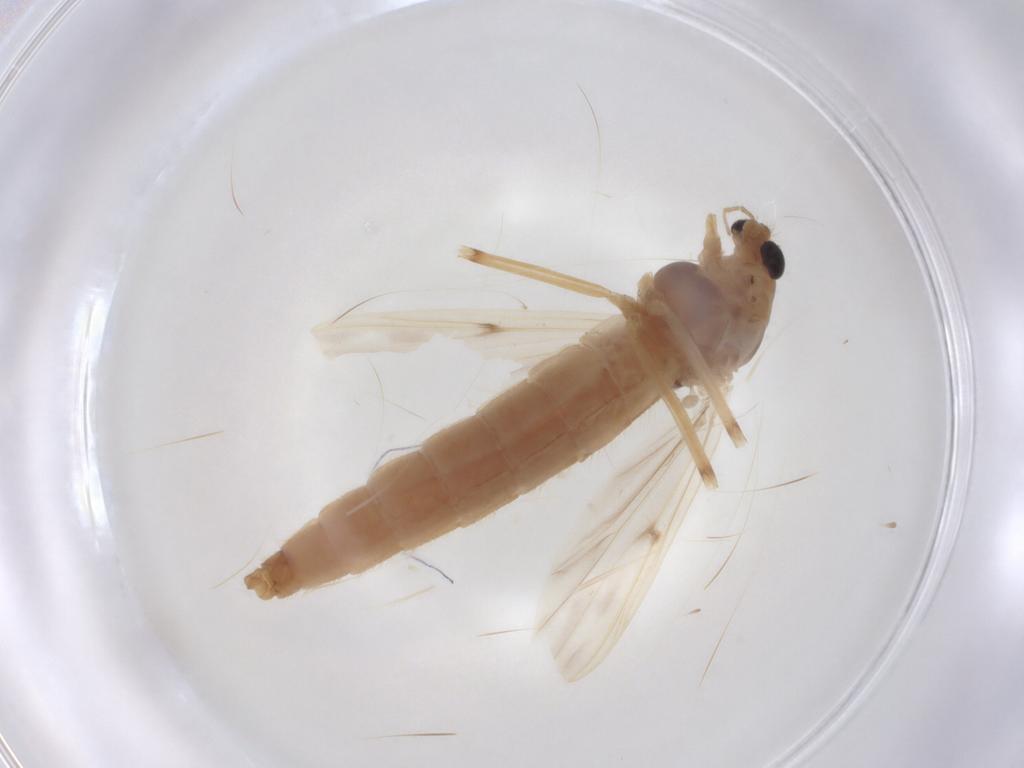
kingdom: Animalia
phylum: Arthropoda
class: Insecta
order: Diptera
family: Chironomidae
